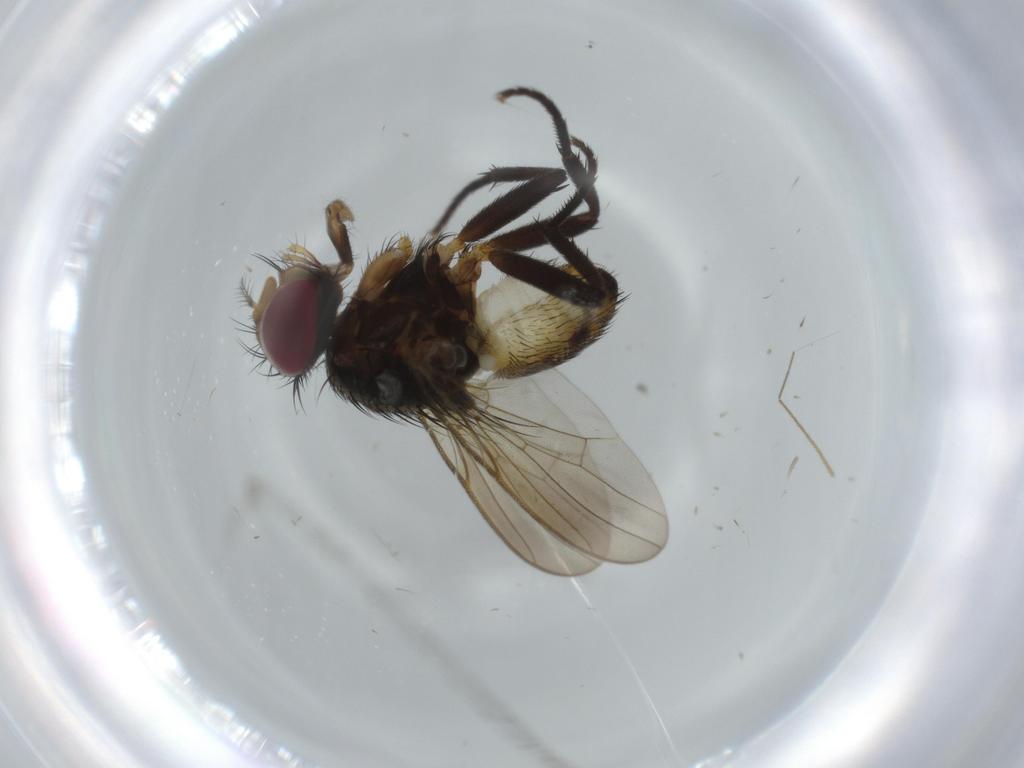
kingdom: Animalia
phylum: Arthropoda
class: Insecta
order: Diptera
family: Anthomyiidae
